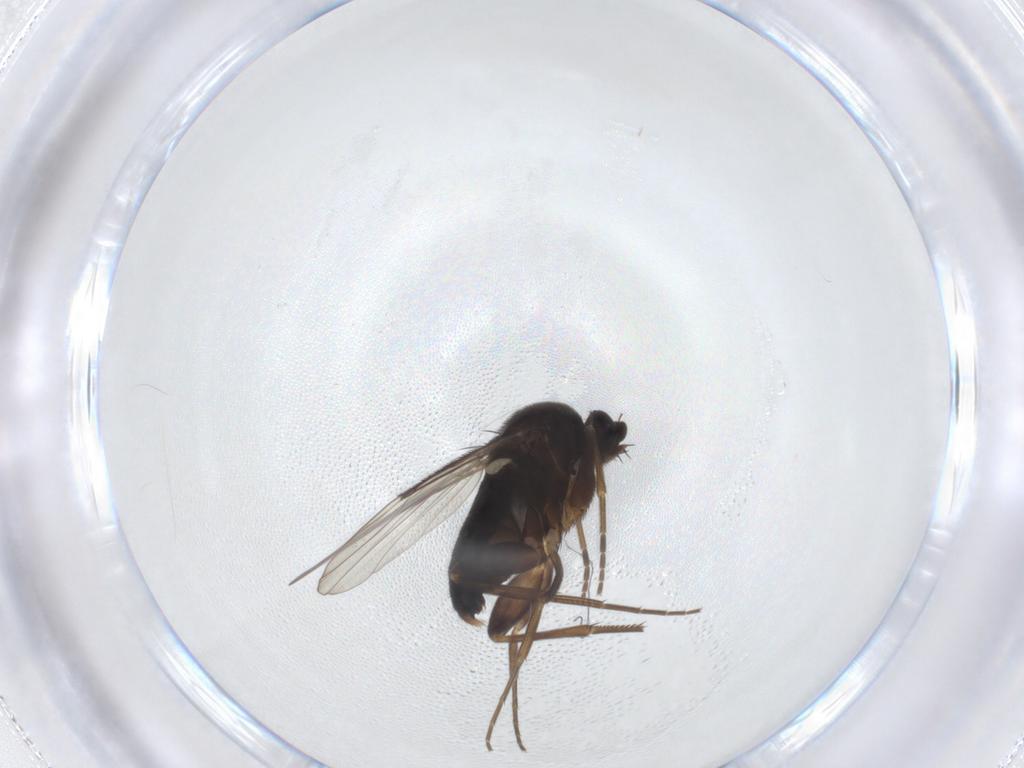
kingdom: Animalia
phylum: Arthropoda
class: Insecta
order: Diptera
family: Phoridae
